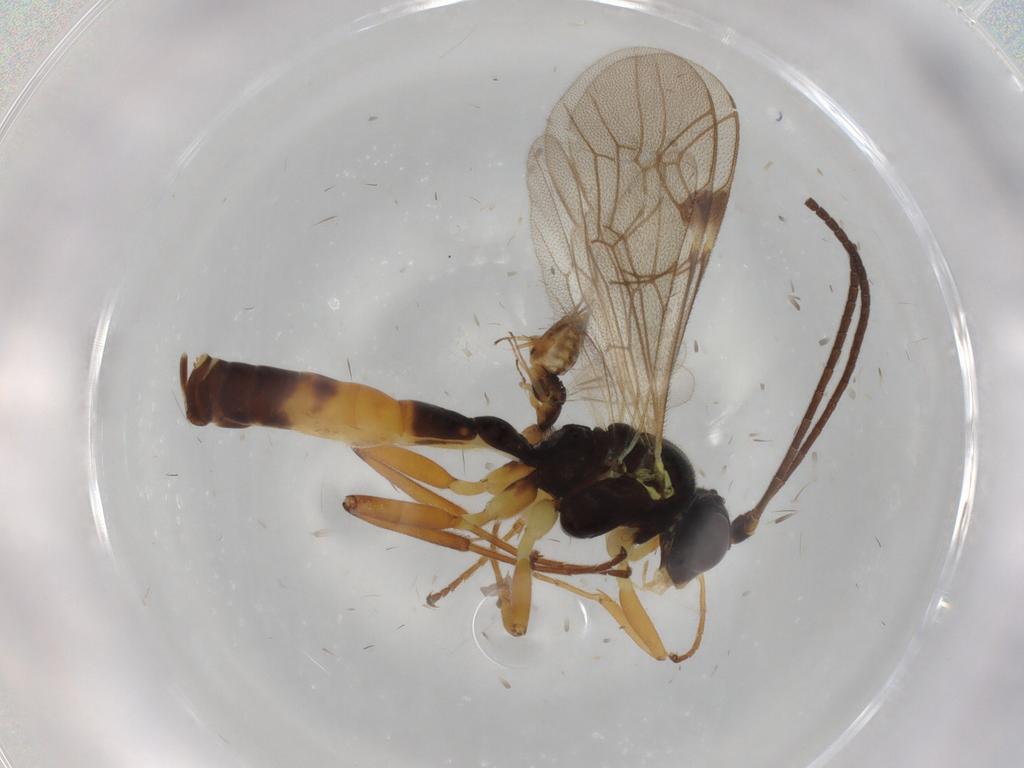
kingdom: Animalia
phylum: Arthropoda
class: Insecta
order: Hymenoptera
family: Ichneumonidae
